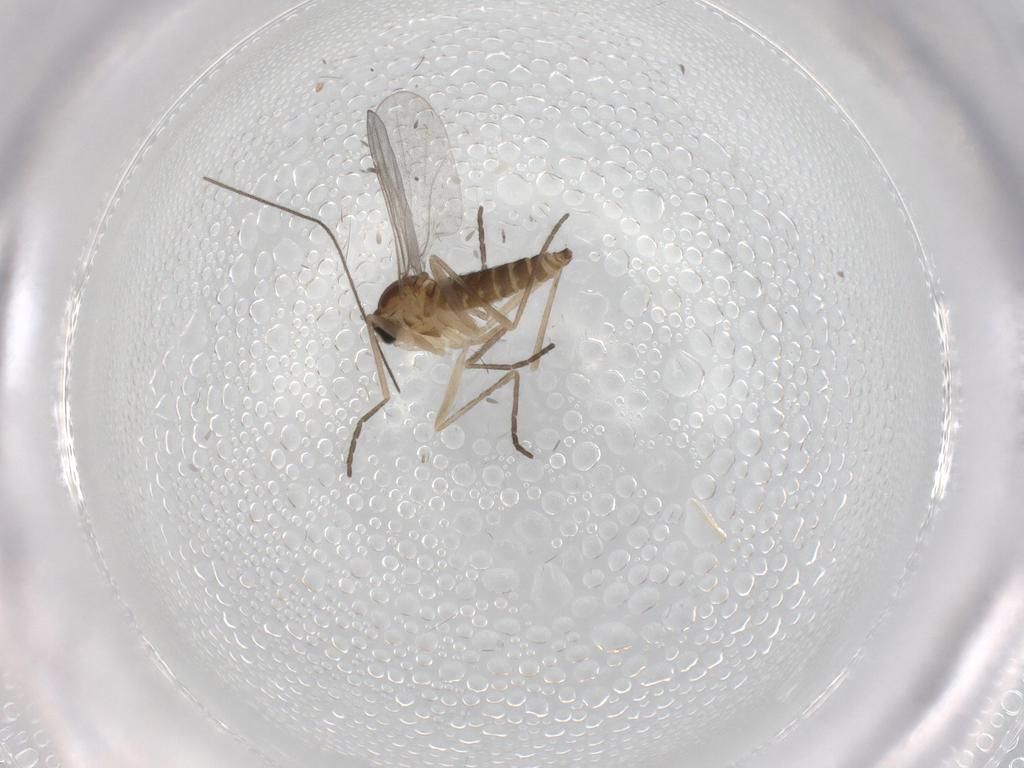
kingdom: Animalia
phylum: Arthropoda
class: Insecta
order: Diptera
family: Cecidomyiidae
